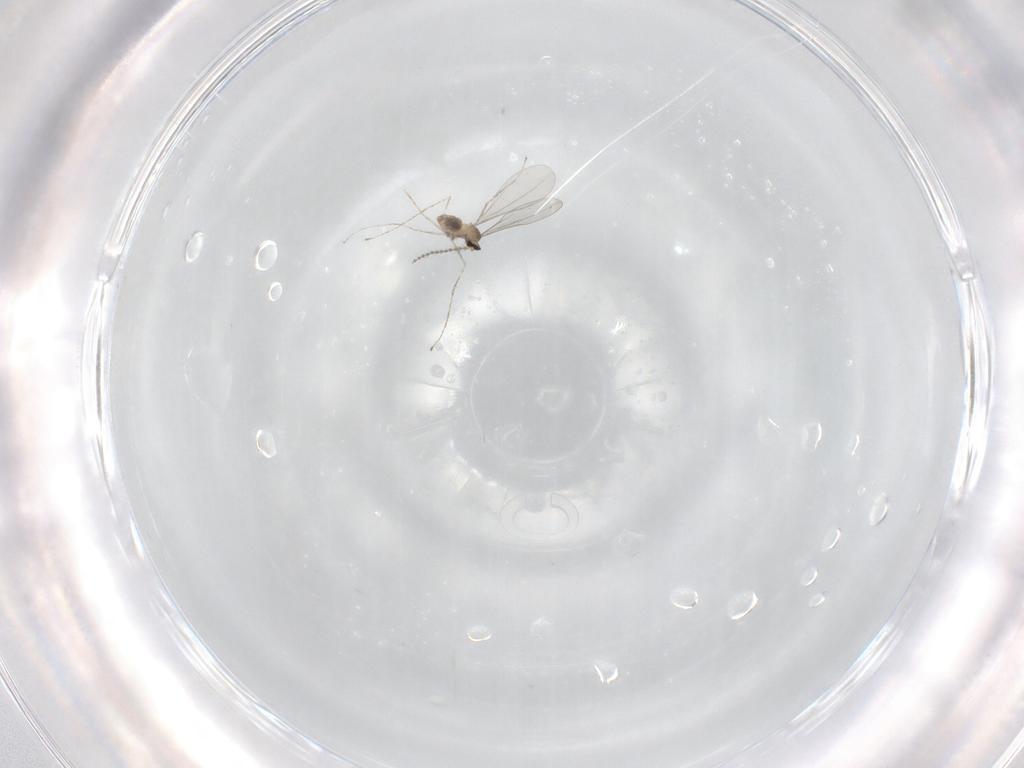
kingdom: Animalia
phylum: Arthropoda
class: Insecta
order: Diptera
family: Cecidomyiidae
